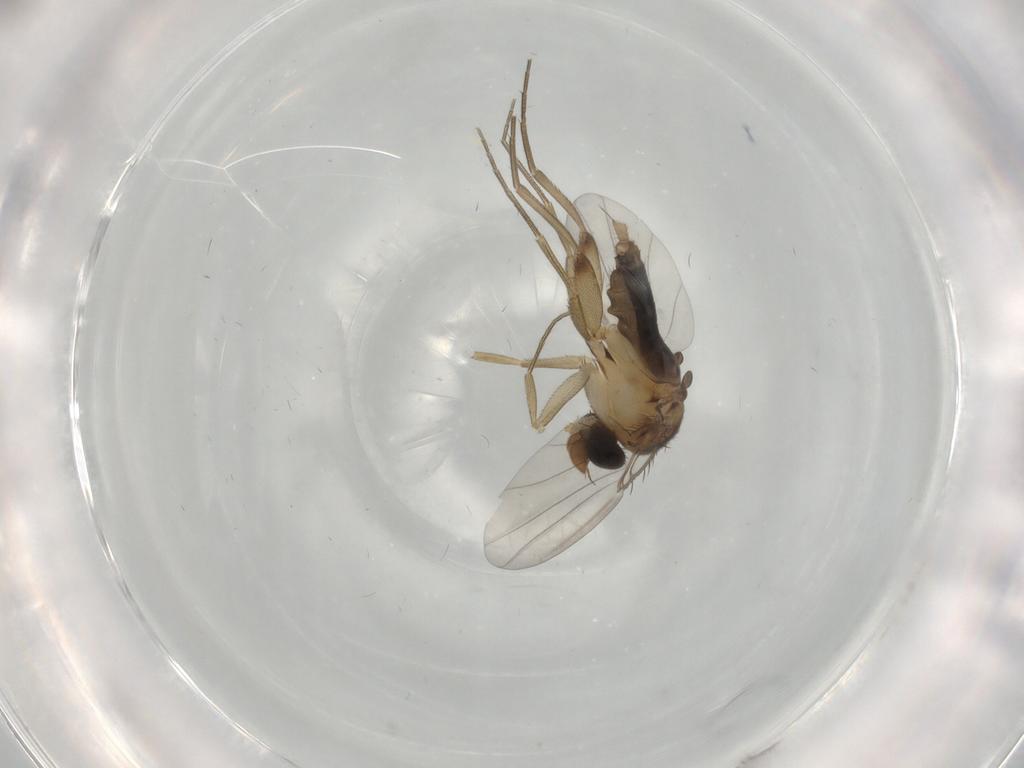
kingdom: Animalia
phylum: Arthropoda
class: Insecta
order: Diptera
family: Phoridae
